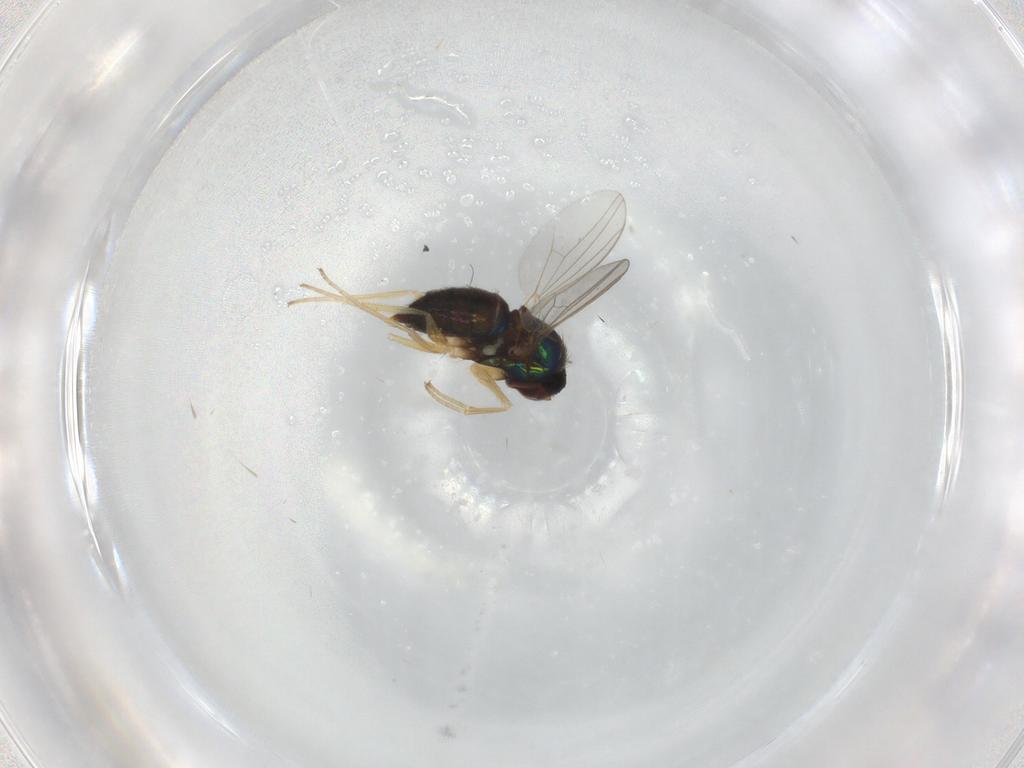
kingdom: Animalia
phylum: Arthropoda
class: Insecta
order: Diptera
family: Dolichopodidae
